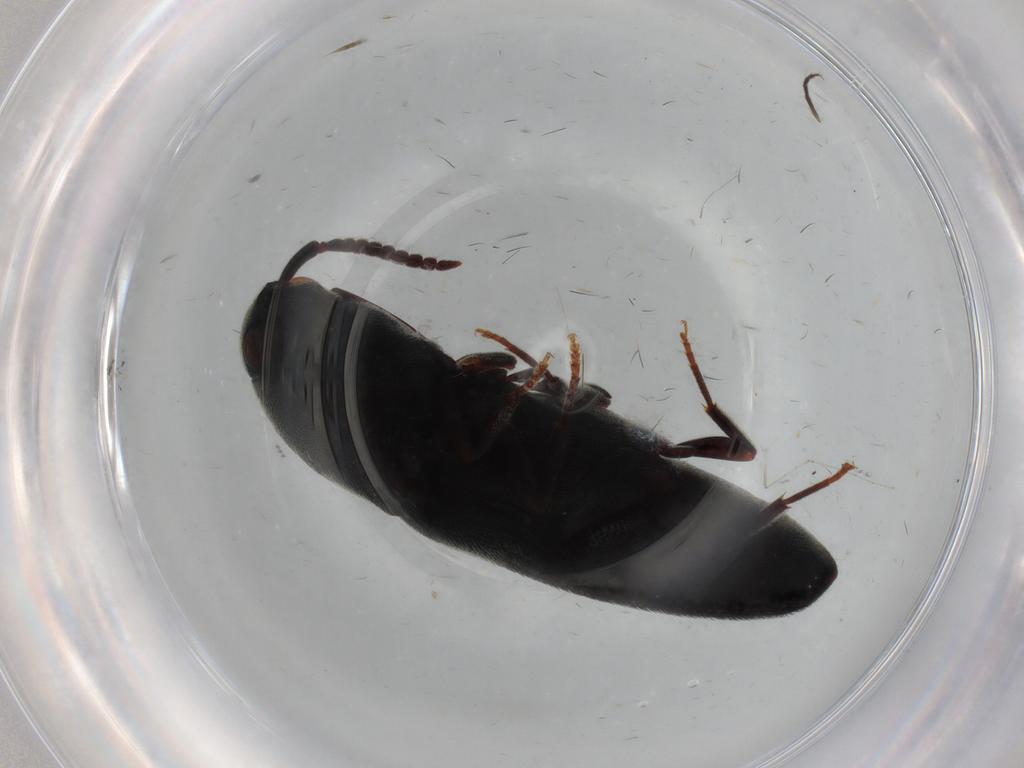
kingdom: Animalia
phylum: Arthropoda
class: Insecta
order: Coleoptera
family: Eucnemidae
